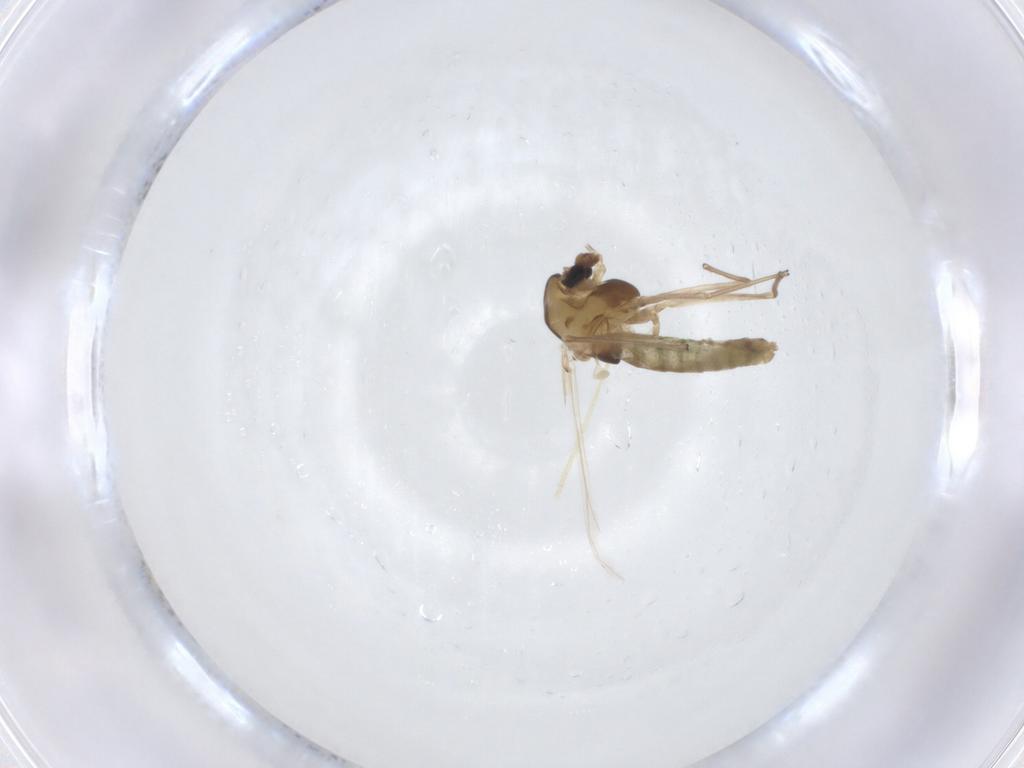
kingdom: Animalia
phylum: Arthropoda
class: Insecta
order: Diptera
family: Chironomidae
